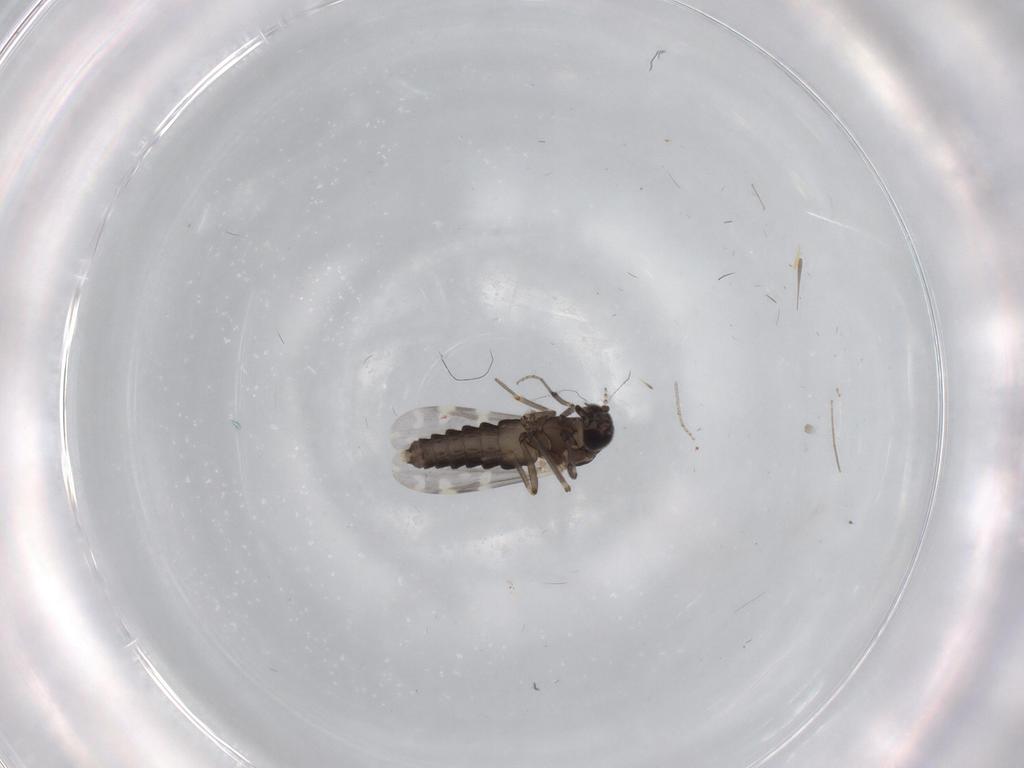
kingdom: Animalia
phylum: Arthropoda
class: Insecta
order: Diptera
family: Ceratopogonidae
